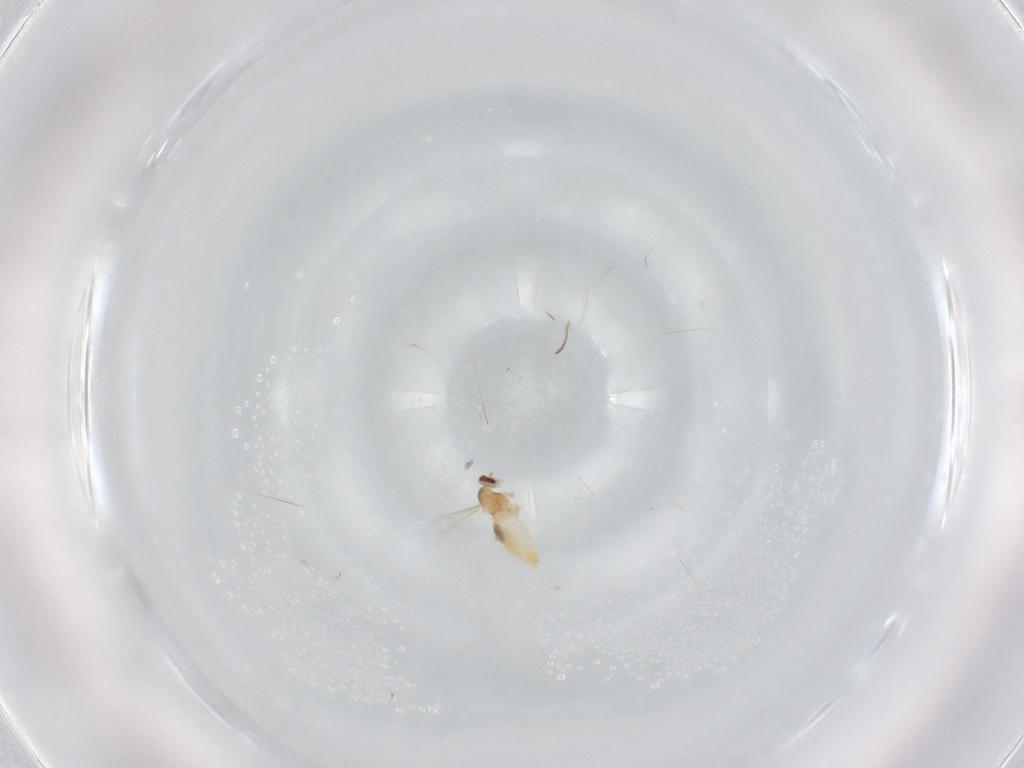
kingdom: Animalia
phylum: Arthropoda
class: Insecta
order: Diptera
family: Cecidomyiidae
